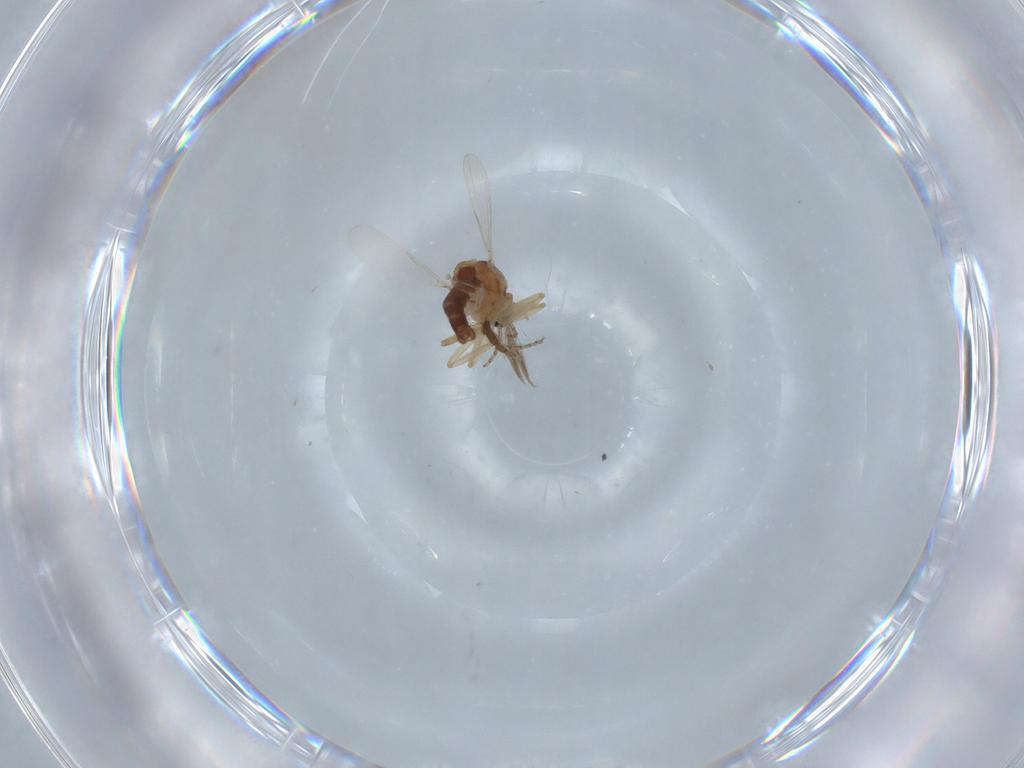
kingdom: Animalia
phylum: Arthropoda
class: Insecta
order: Diptera
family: Ceratopogonidae
